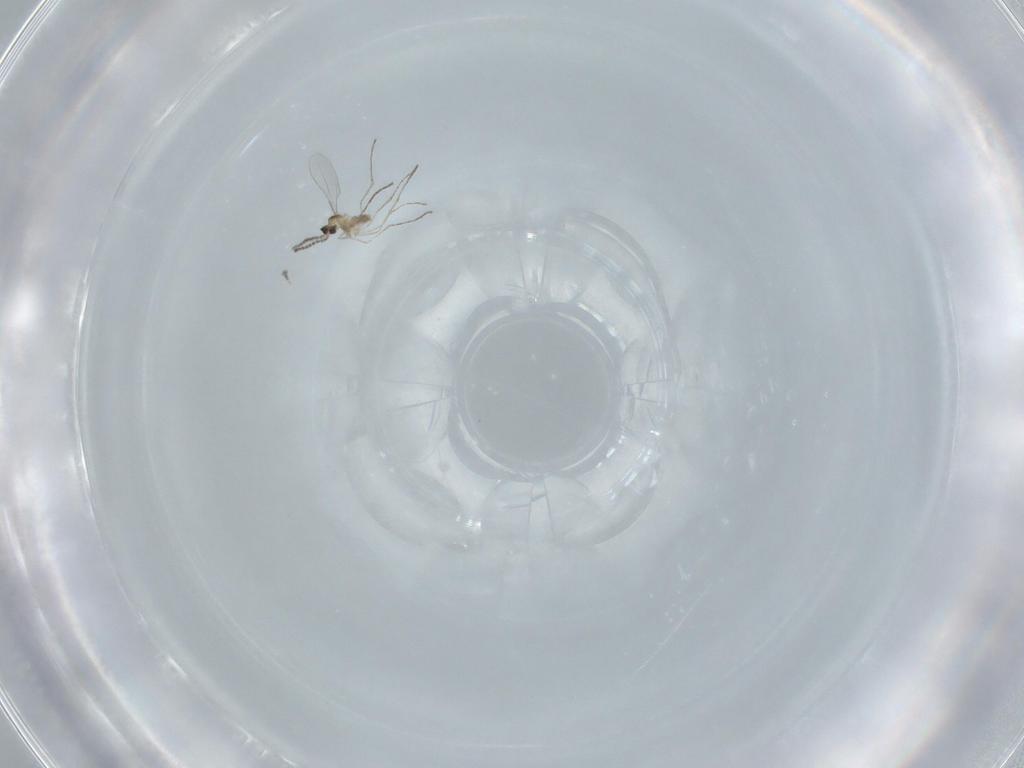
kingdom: Animalia
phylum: Arthropoda
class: Insecta
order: Diptera
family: Cecidomyiidae
